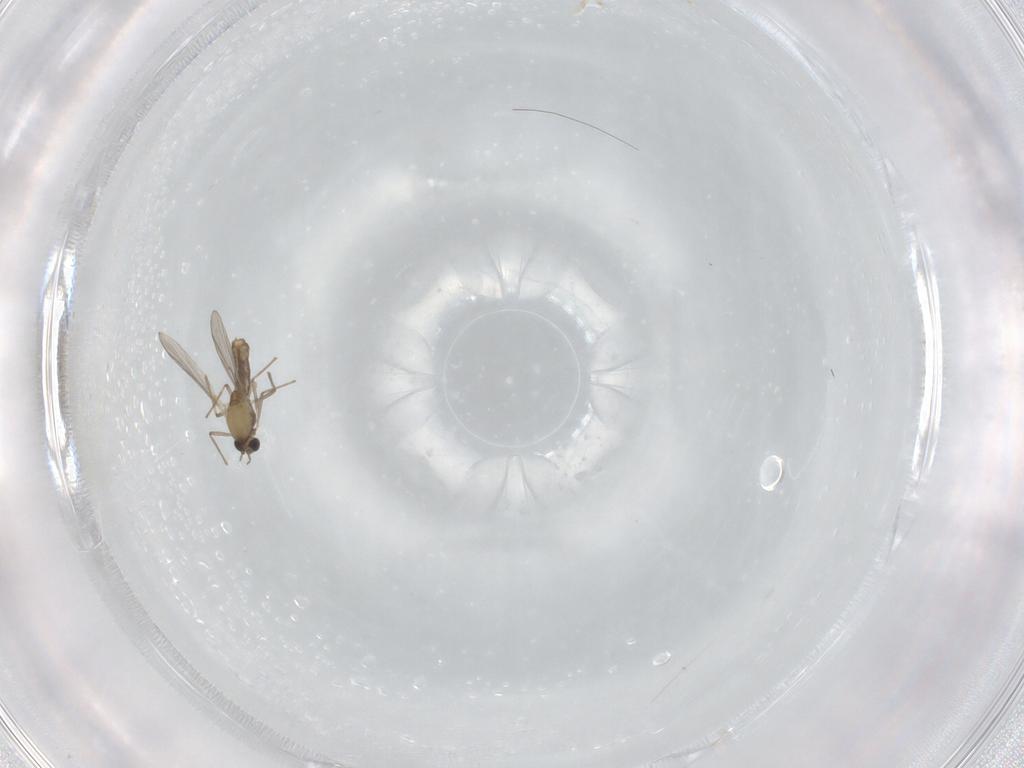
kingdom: Animalia
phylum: Arthropoda
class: Insecta
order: Diptera
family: Chironomidae
